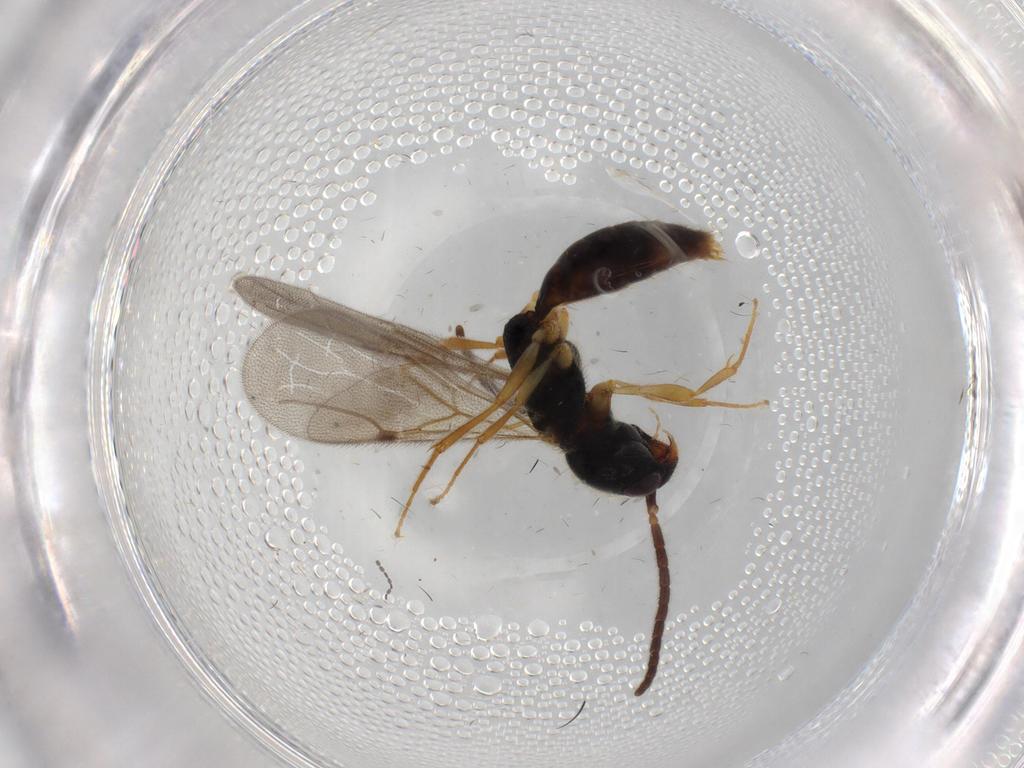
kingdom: Animalia
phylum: Arthropoda
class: Insecta
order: Hymenoptera
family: Bethylidae
